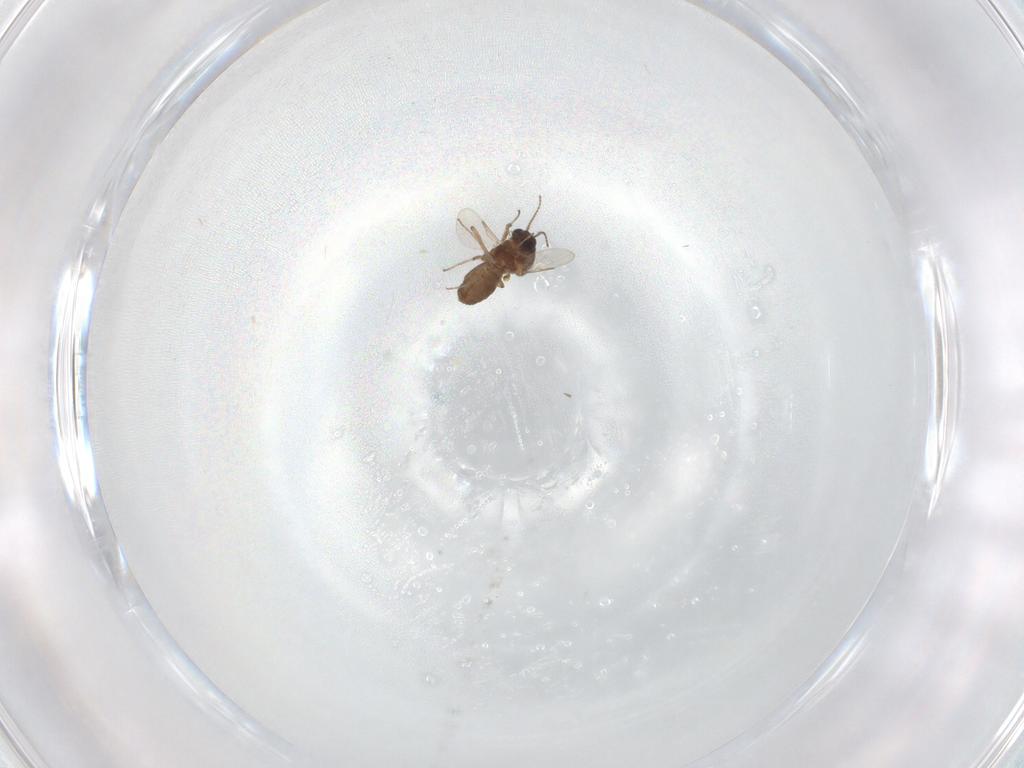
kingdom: Animalia
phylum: Arthropoda
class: Insecta
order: Diptera
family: Ceratopogonidae
